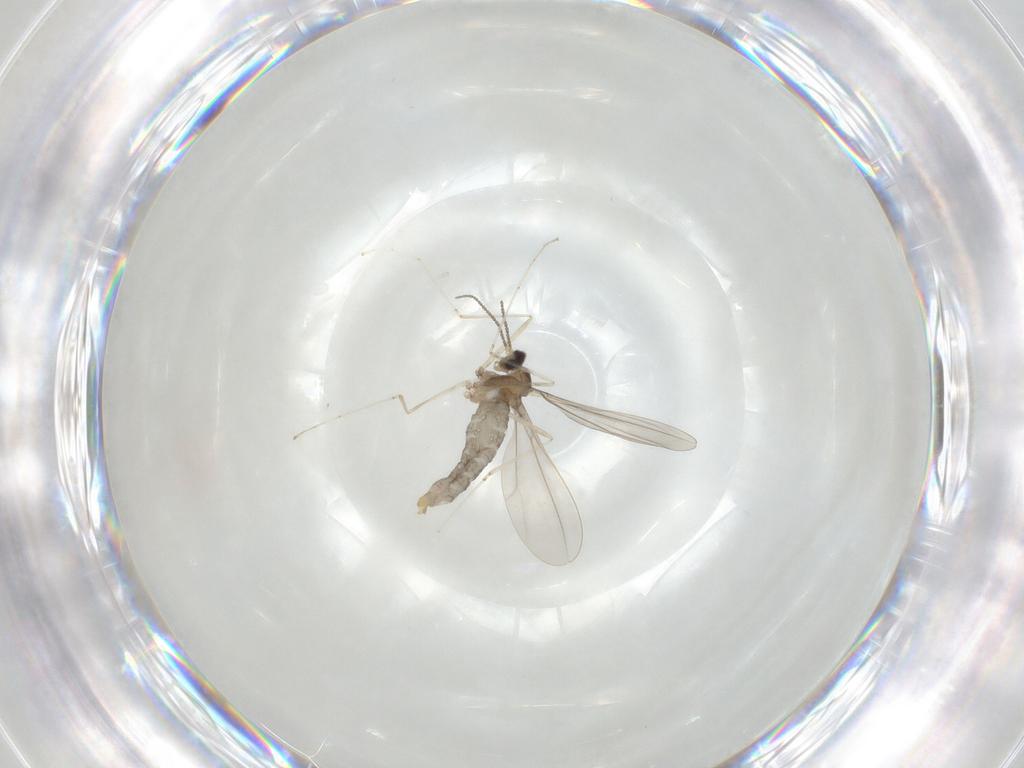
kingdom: Animalia
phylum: Arthropoda
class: Insecta
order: Diptera
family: Cecidomyiidae
